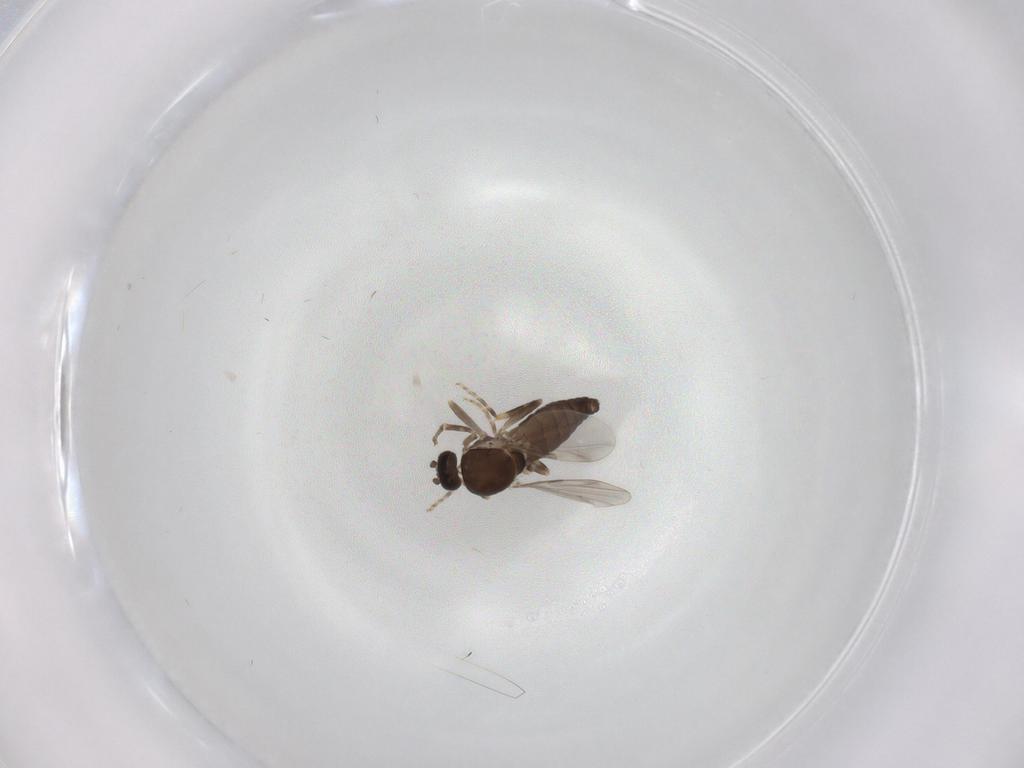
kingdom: Animalia
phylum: Arthropoda
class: Insecta
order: Diptera
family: Ceratopogonidae
